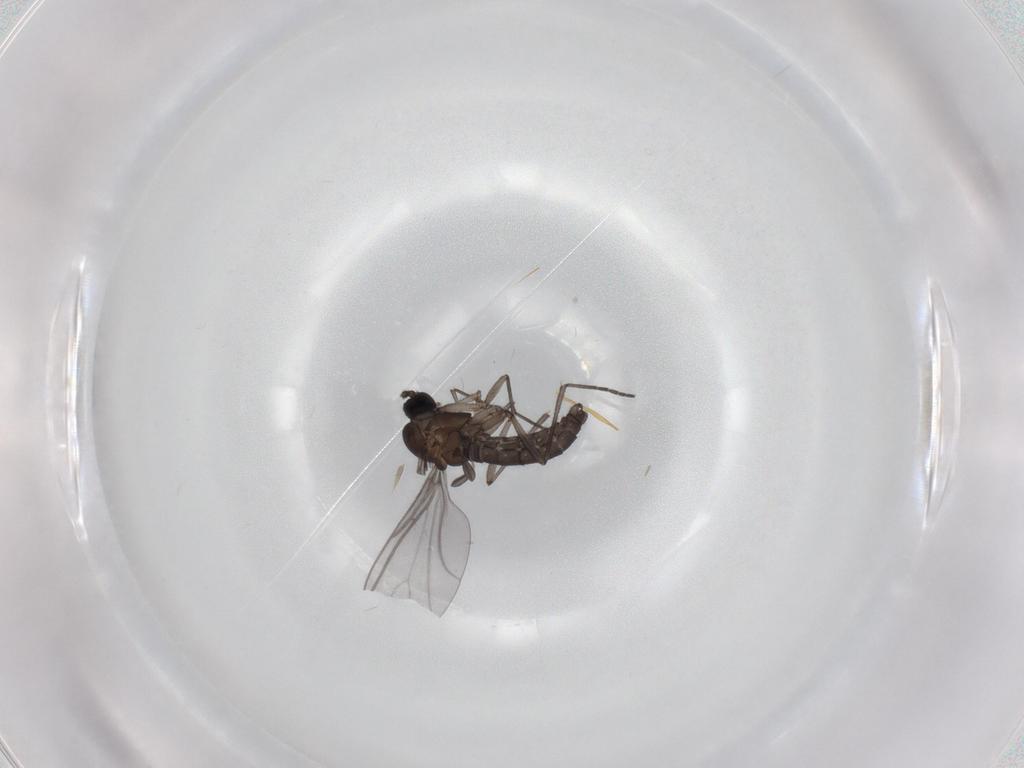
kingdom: Animalia
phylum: Arthropoda
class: Insecta
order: Diptera
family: Sciaridae
